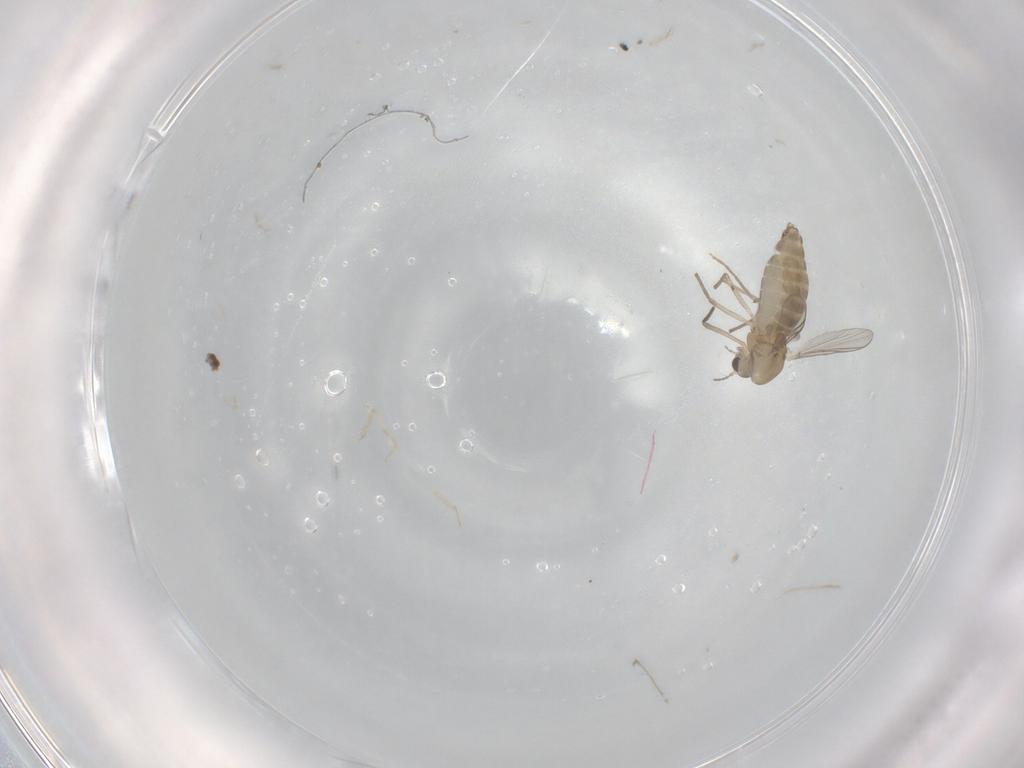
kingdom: Animalia
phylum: Arthropoda
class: Insecta
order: Diptera
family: Chironomidae
